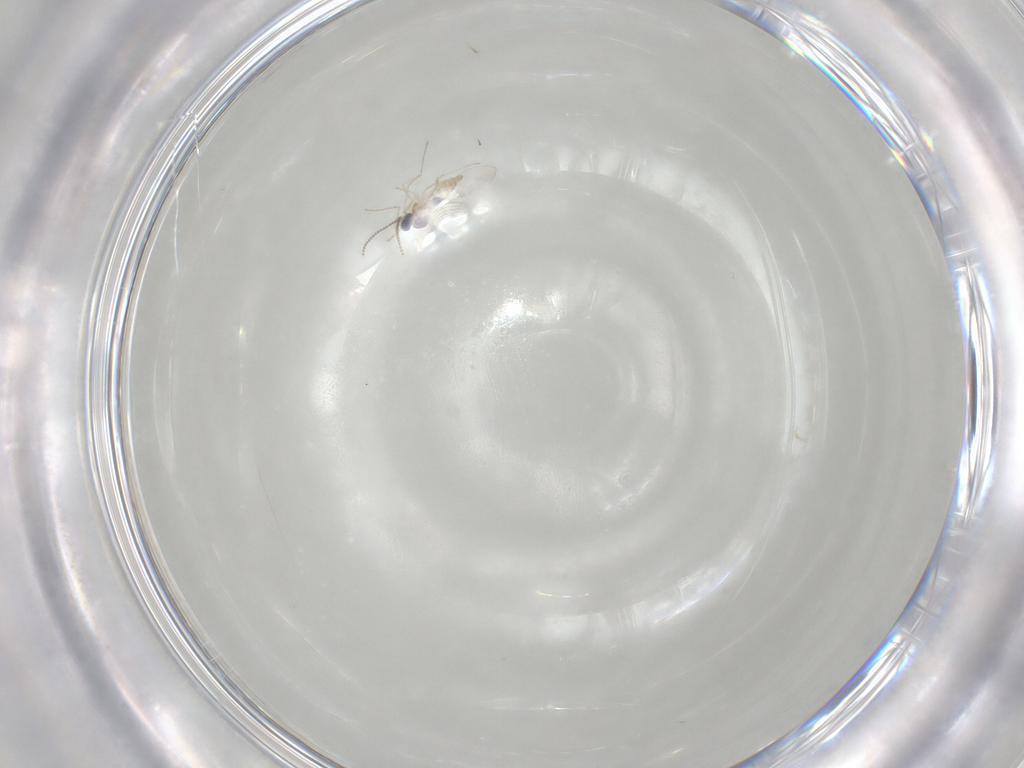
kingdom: Animalia
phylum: Arthropoda
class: Insecta
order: Diptera
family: Cecidomyiidae
